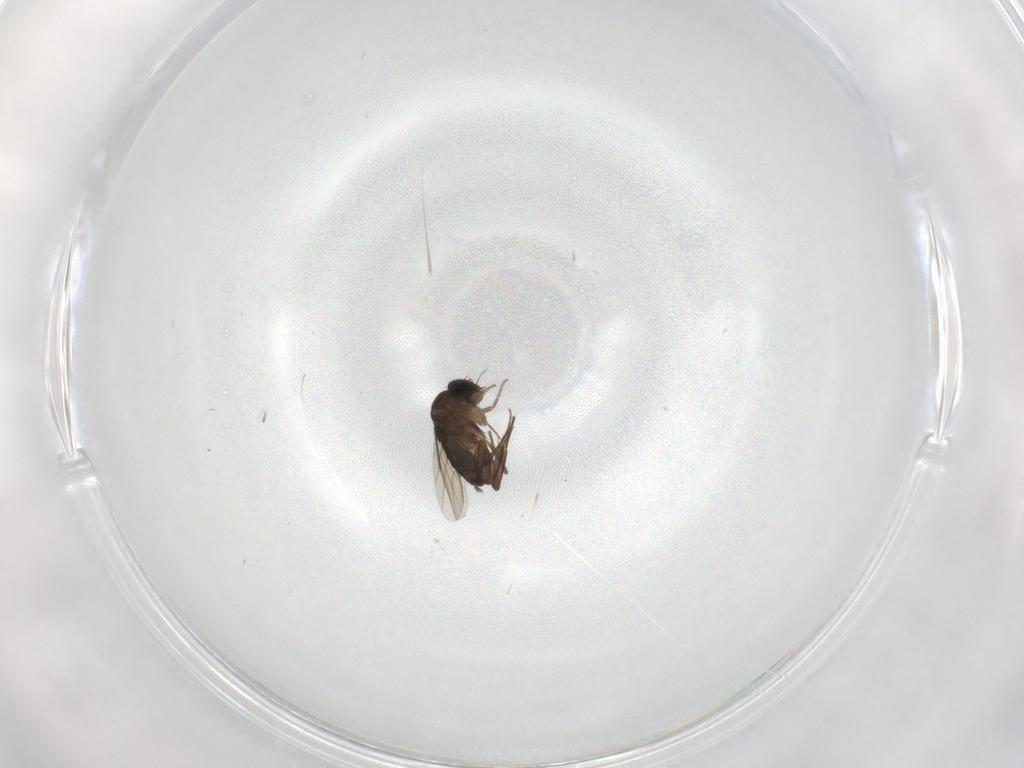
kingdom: Animalia
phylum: Arthropoda
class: Insecta
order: Diptera
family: Phoridae
